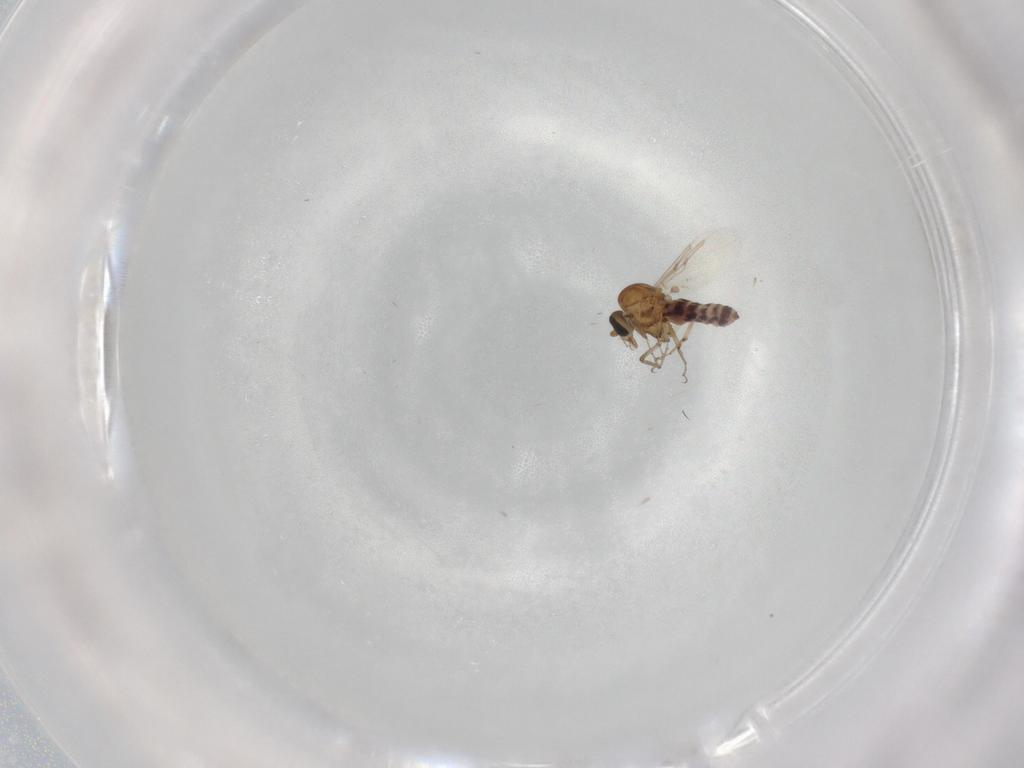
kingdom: Animalia
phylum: Arthropoda
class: Insecta
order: Diptera
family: Ceratopogonidae
